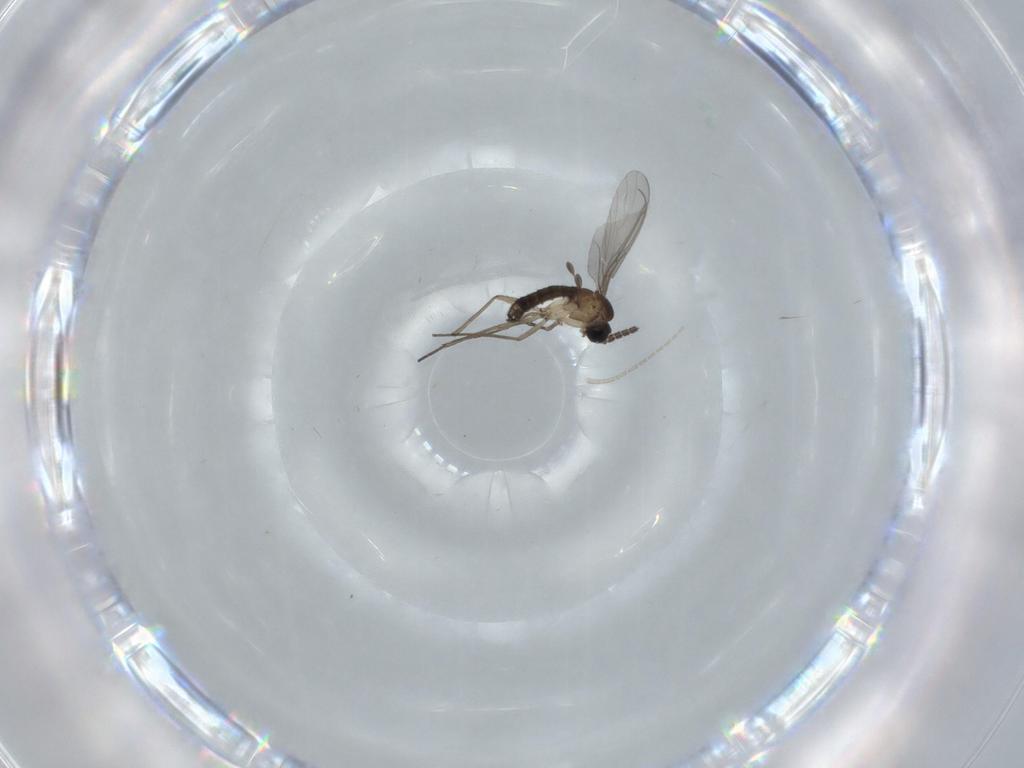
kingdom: Animalia
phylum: Arthropoda
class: Insecta
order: Diptera
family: Sciaridae
